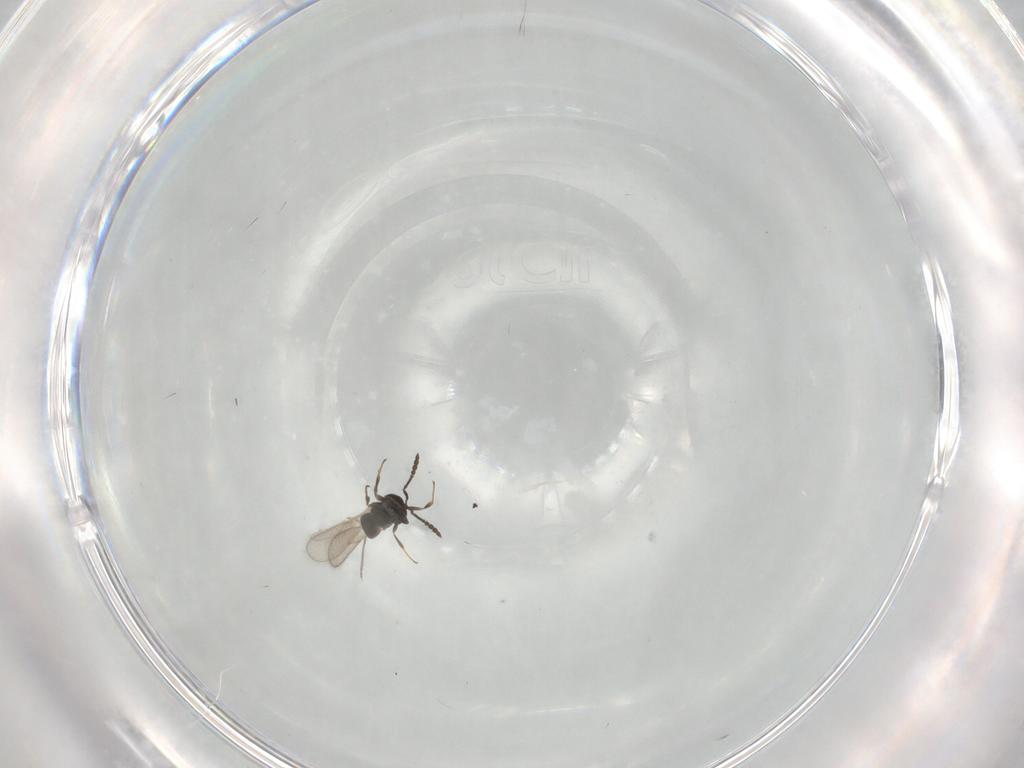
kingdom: Animalia
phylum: Arthropoda
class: Insecta
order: Hymenoptera
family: Scelionidae
